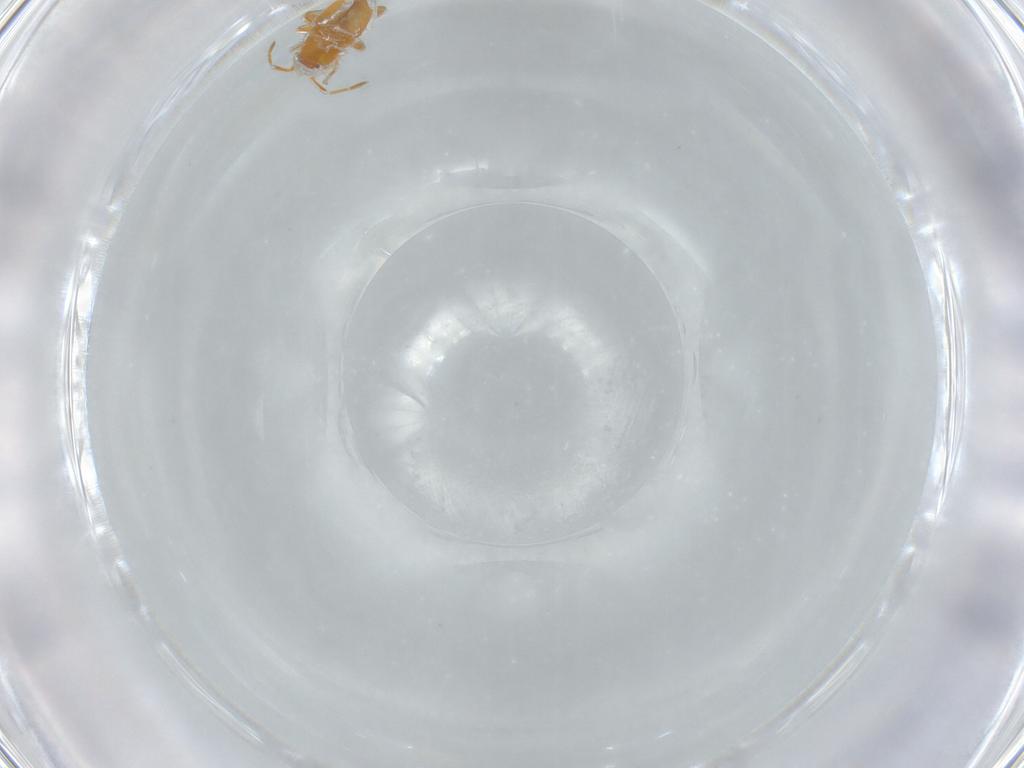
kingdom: Animalia
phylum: Arthropoda
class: Insecta
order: Hemiptera
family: Miridae
